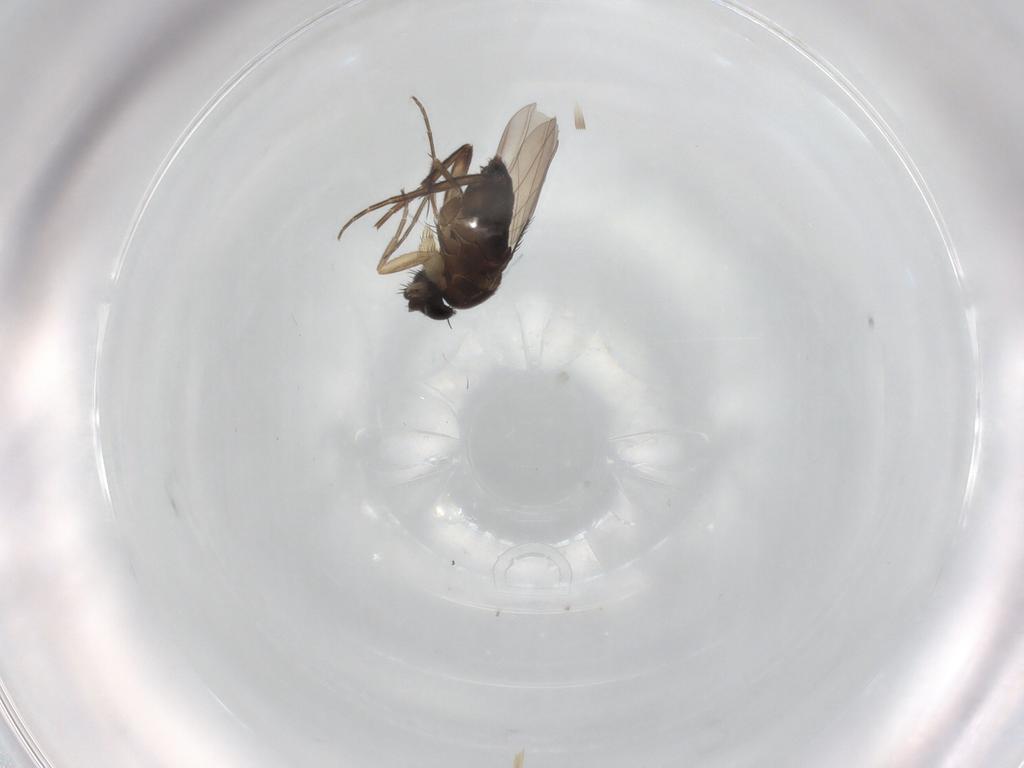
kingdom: Animalia
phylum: Arthropoda
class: Insecta
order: Diptera
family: Phoridae
